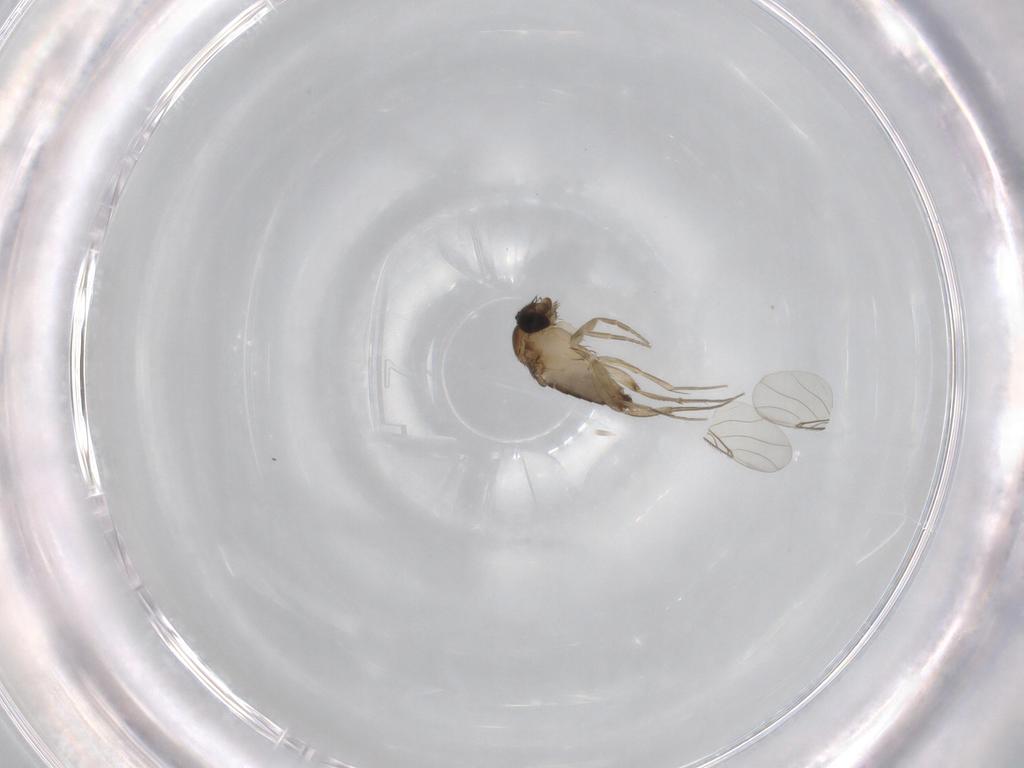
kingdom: Animalia
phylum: Arthropoda
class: Insecta
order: Diptera
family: Phoridae
